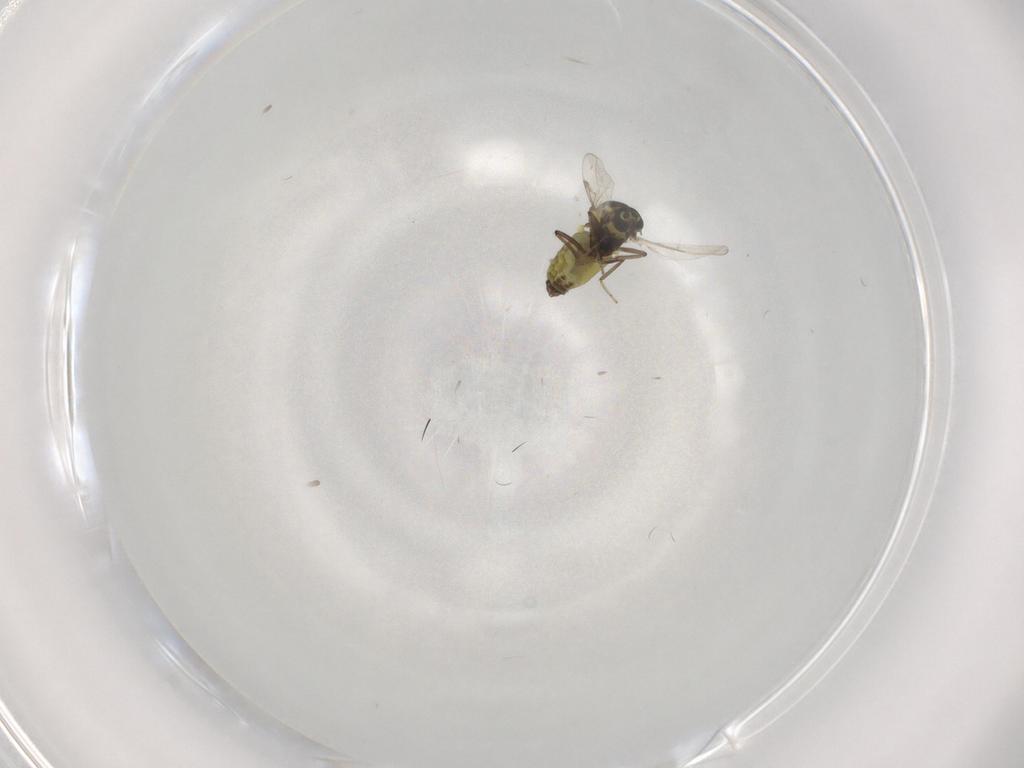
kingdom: Animalia
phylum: Arthropoda
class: Insecta
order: Diptera
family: Ceratopogonidae
